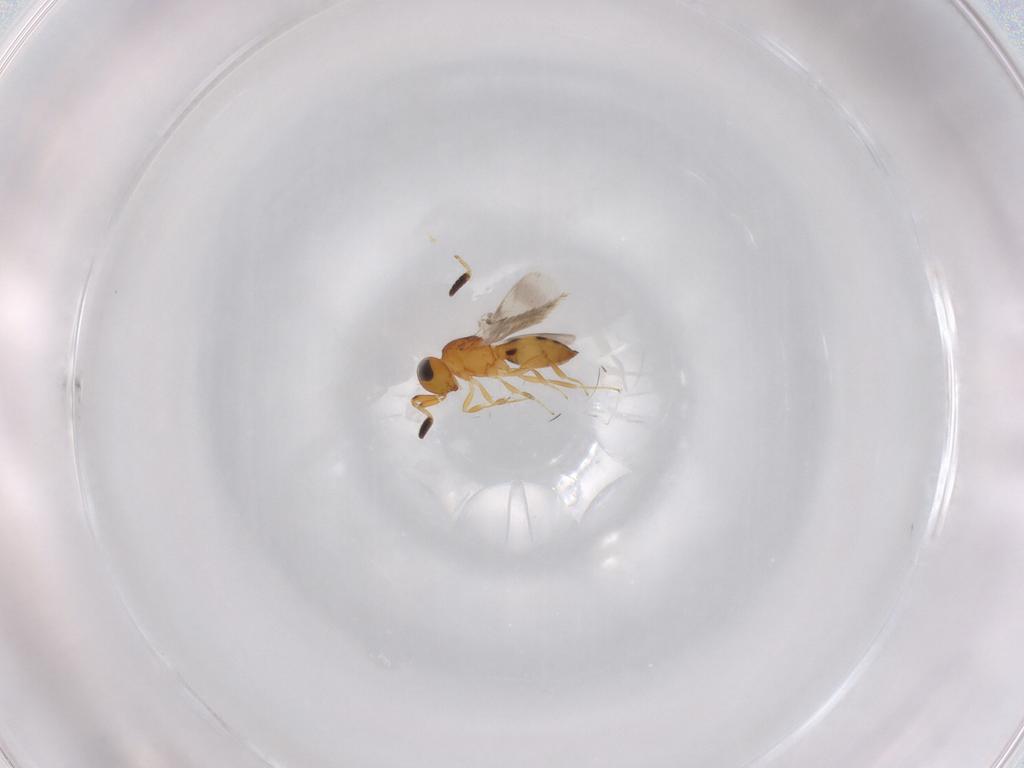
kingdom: Animalia
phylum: Arthropoda
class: Insecta
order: Hymenoptera
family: Scelionidae
